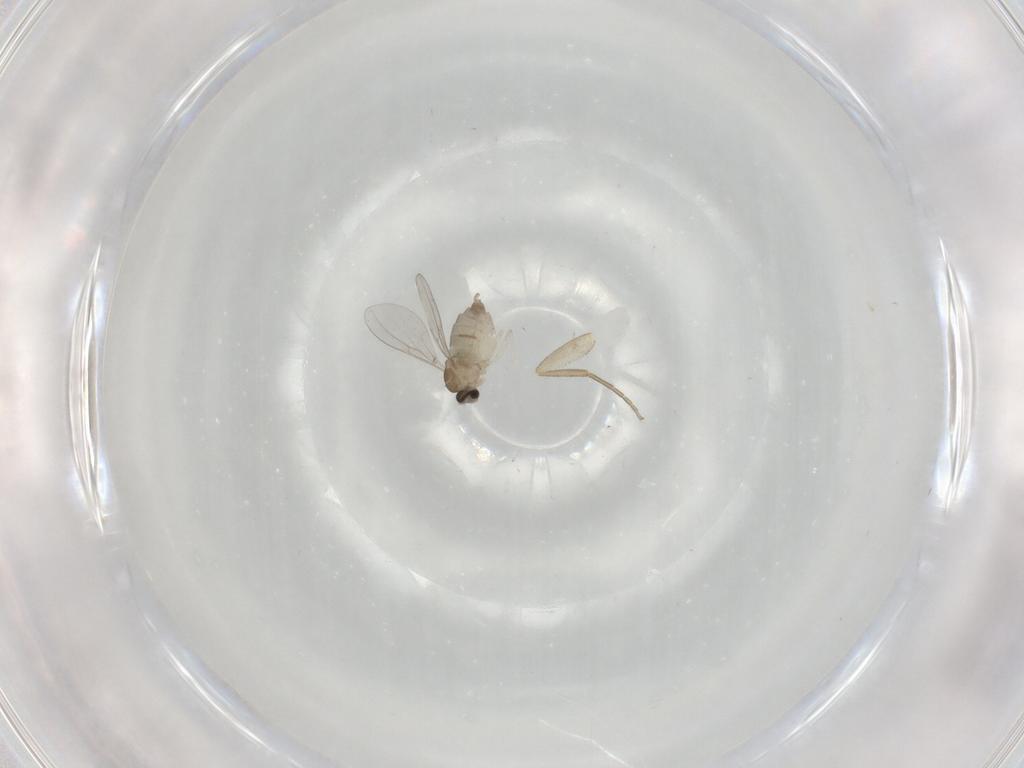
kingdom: Animalia
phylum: Arthropoda
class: Insecta
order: Diptera
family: Cecidomyiidae
